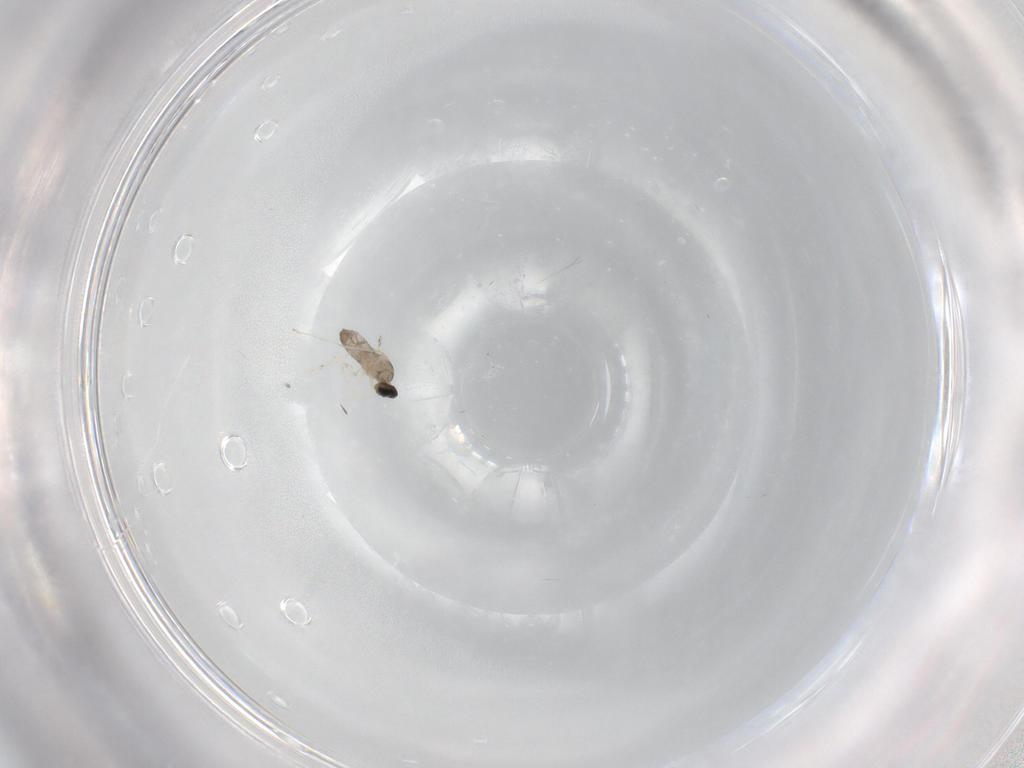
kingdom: Animalia
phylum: Arthropoda
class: Insecta
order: Diptera
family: Cecidomyiidae
